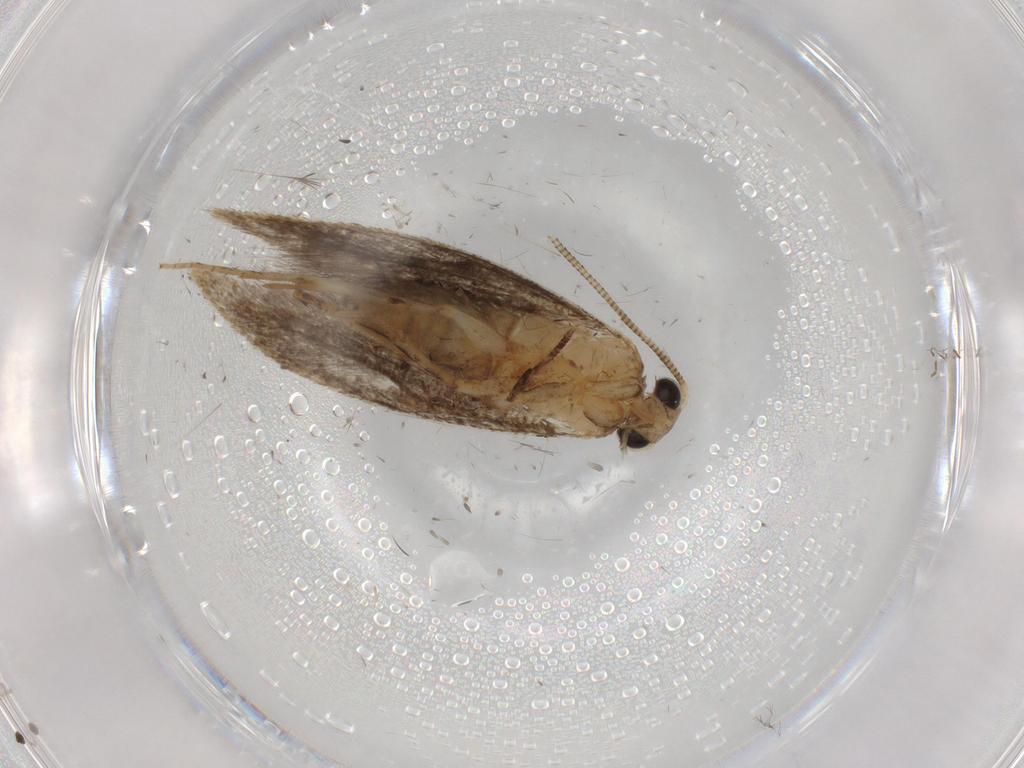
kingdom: Animalia
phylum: Arthropoda
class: Insecta
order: Lepidoptera
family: Tineidae
